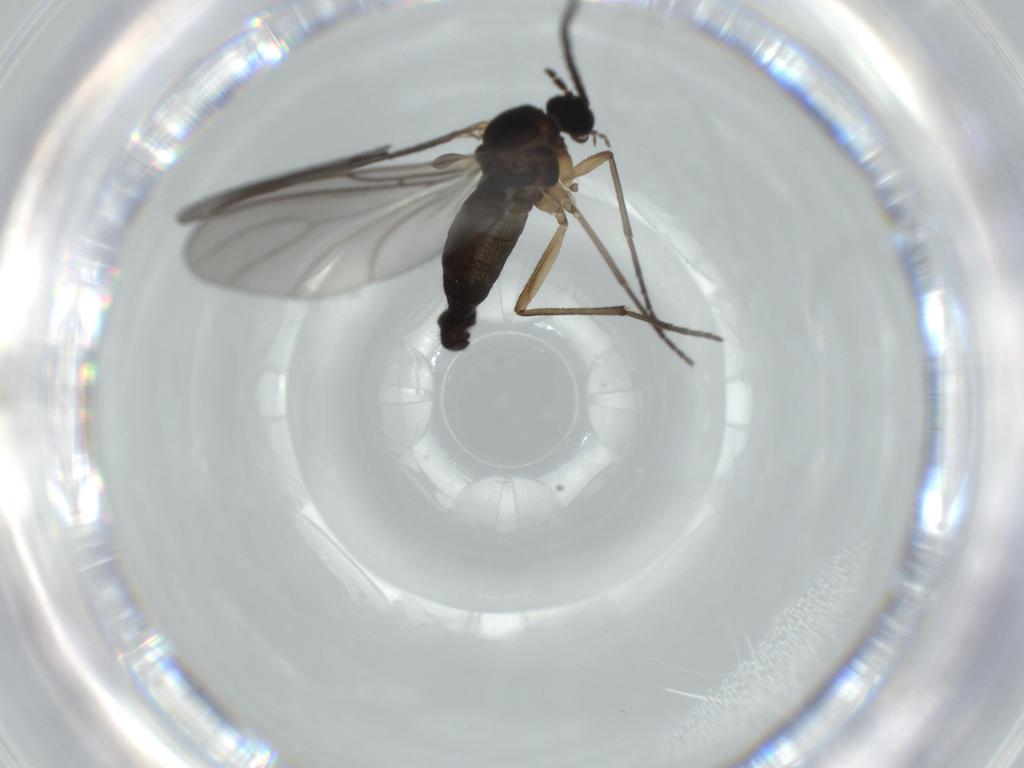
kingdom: Animalia
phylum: Arthropoda
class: Insecta
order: Diptera
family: Sciaridae
